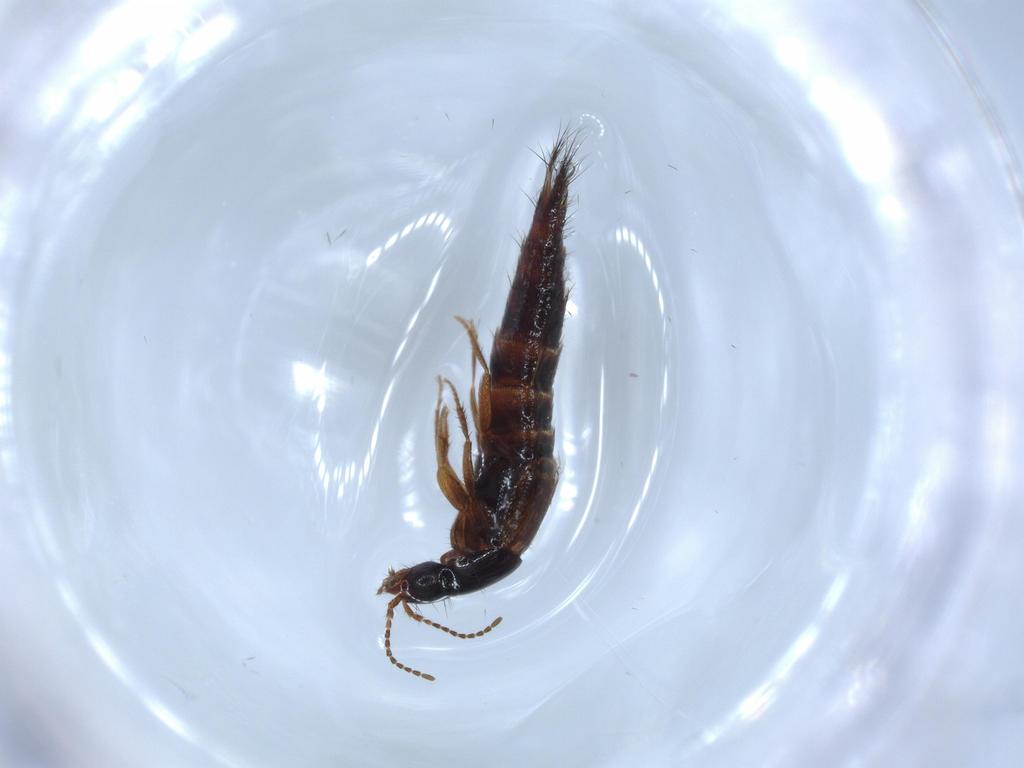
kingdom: Animalia
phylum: Arthropoda
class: Insecta
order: Coleoptera
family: Staphylinidae
